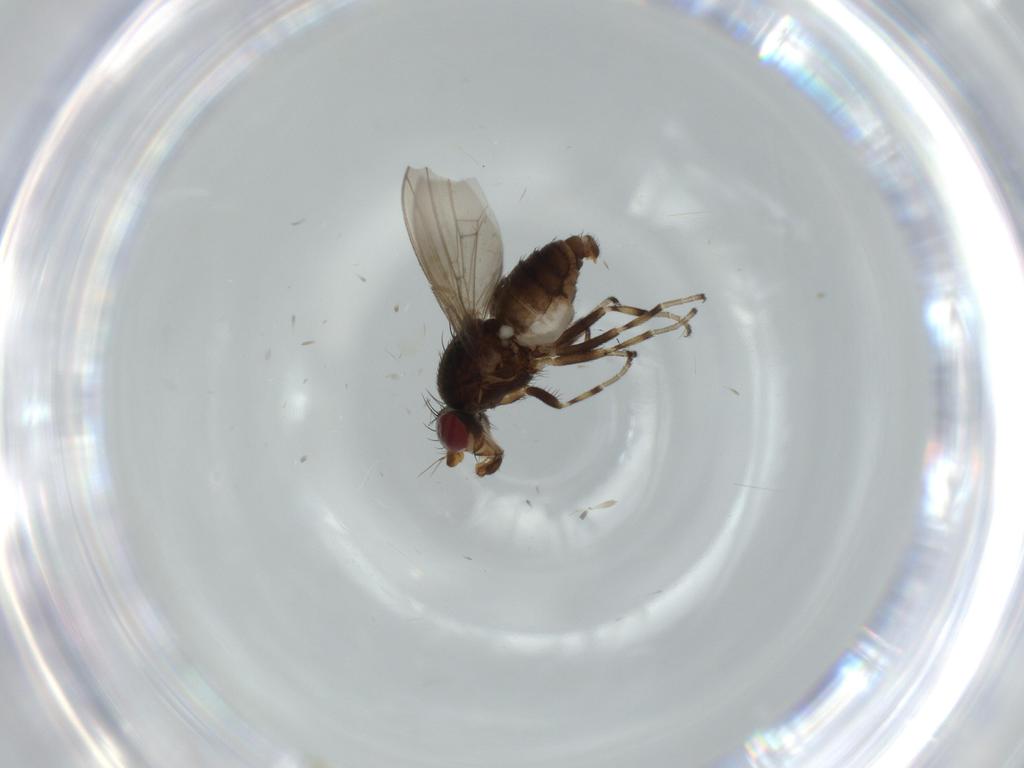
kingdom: Animalia
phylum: Arthropoda
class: Insecta
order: Diptera
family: Sciaridae
